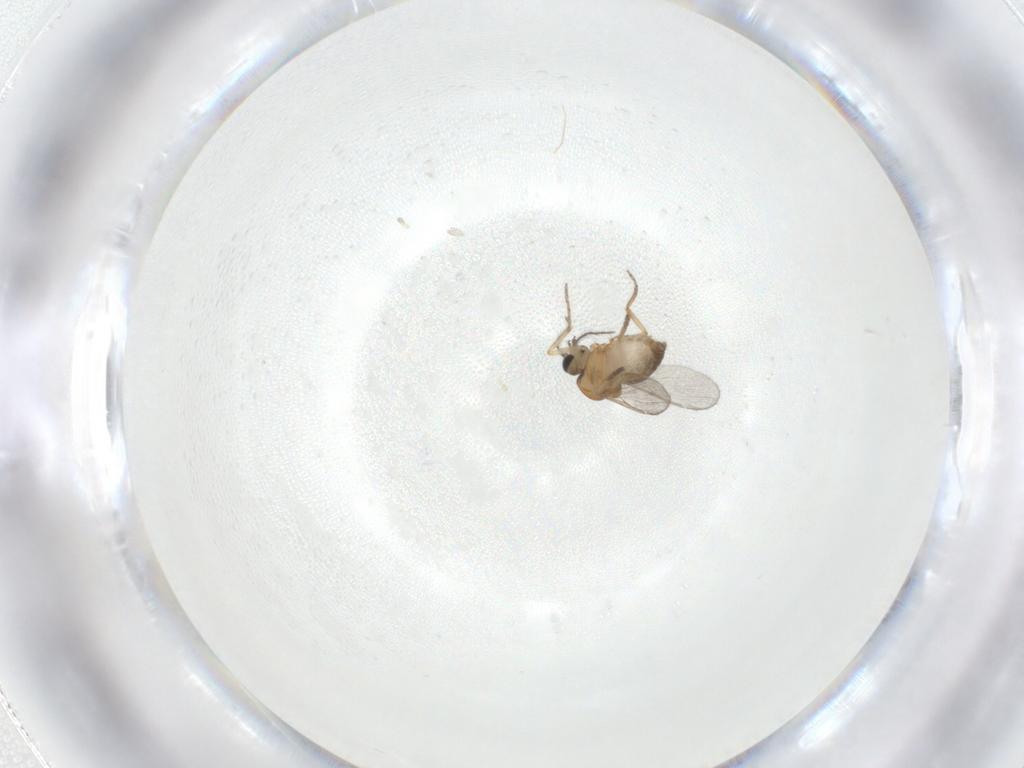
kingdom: Animalia
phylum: Arthropoda
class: Insecta
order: Diptera
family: Ceratopogonidae
